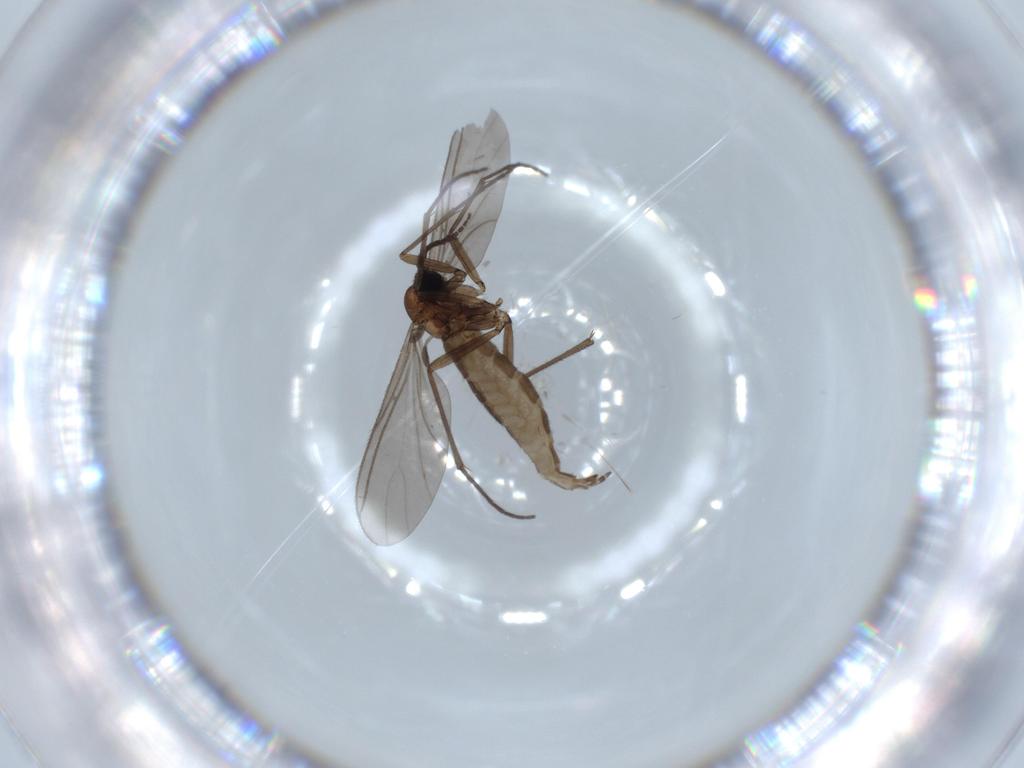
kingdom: Animalia
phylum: Arthropoda
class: Insecta
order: Diptera
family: Sciaridae
